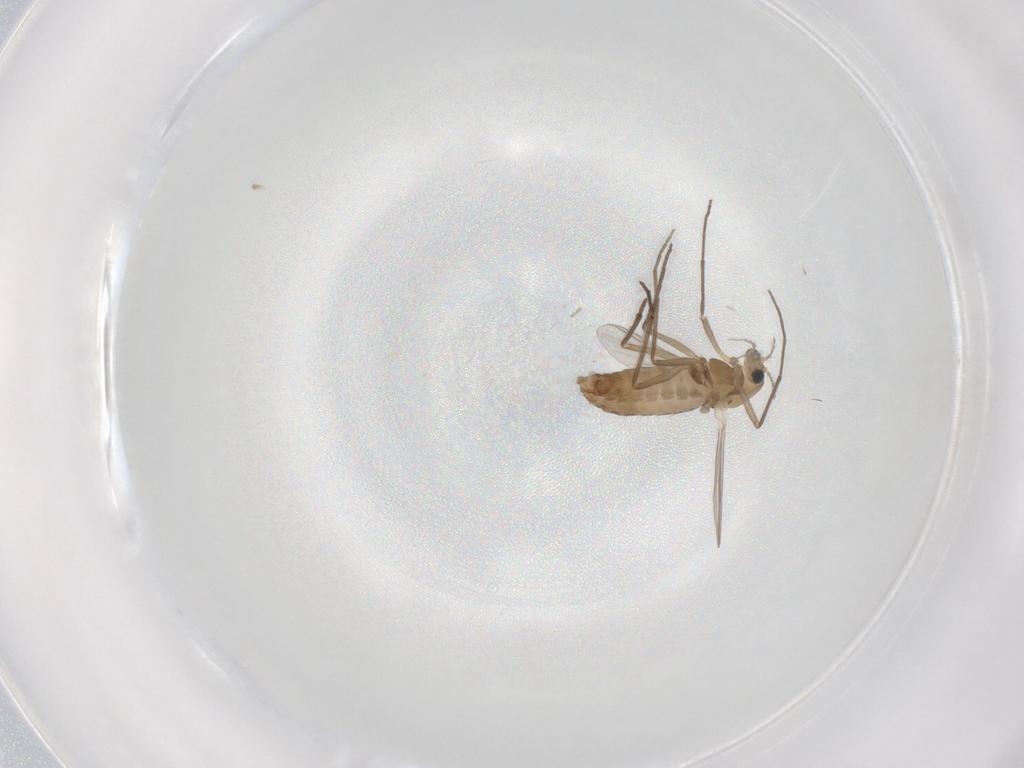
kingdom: Animalia
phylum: Arthropoda
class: Insecta
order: Diptera
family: Chironomidae
